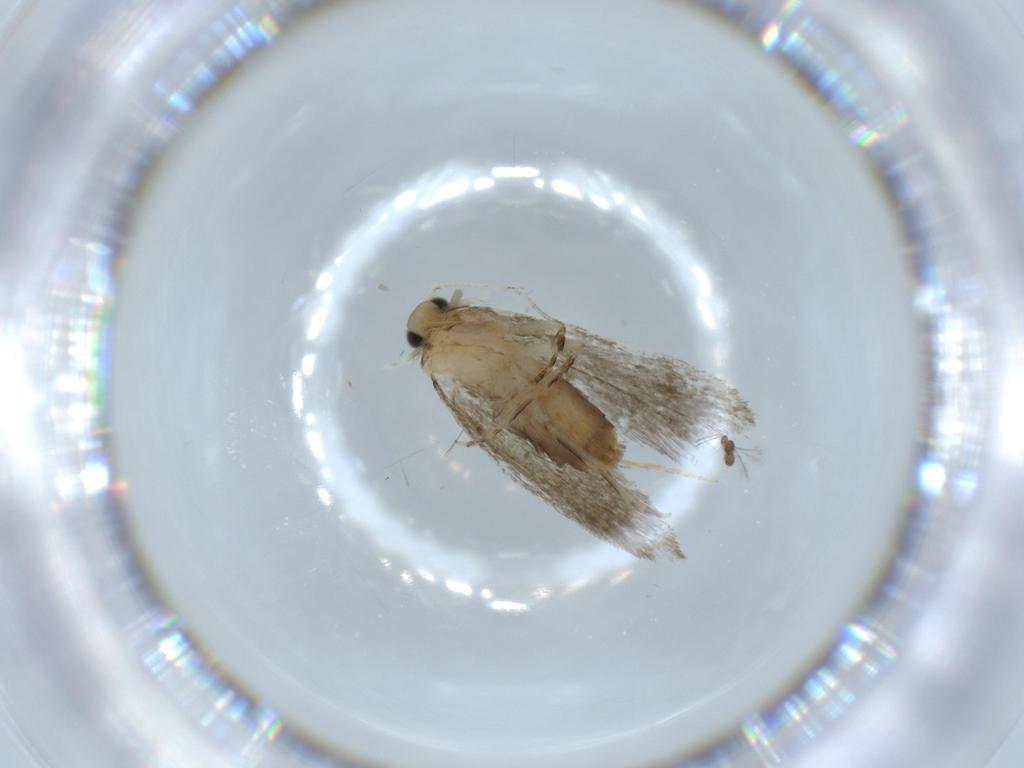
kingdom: Animalia
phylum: Arthropoda
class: Insecta
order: Lepidoptera
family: Tineidae
